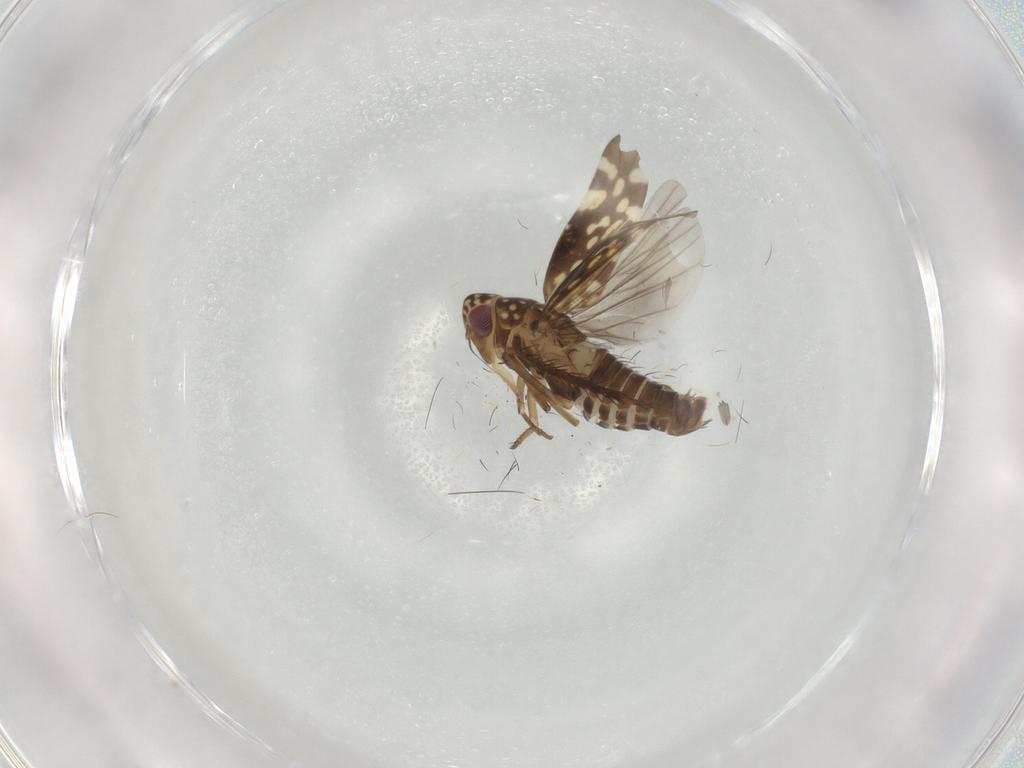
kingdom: Animalia
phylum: Arthropoda
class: Insecta
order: Hemiptera
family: Cicadellidae
